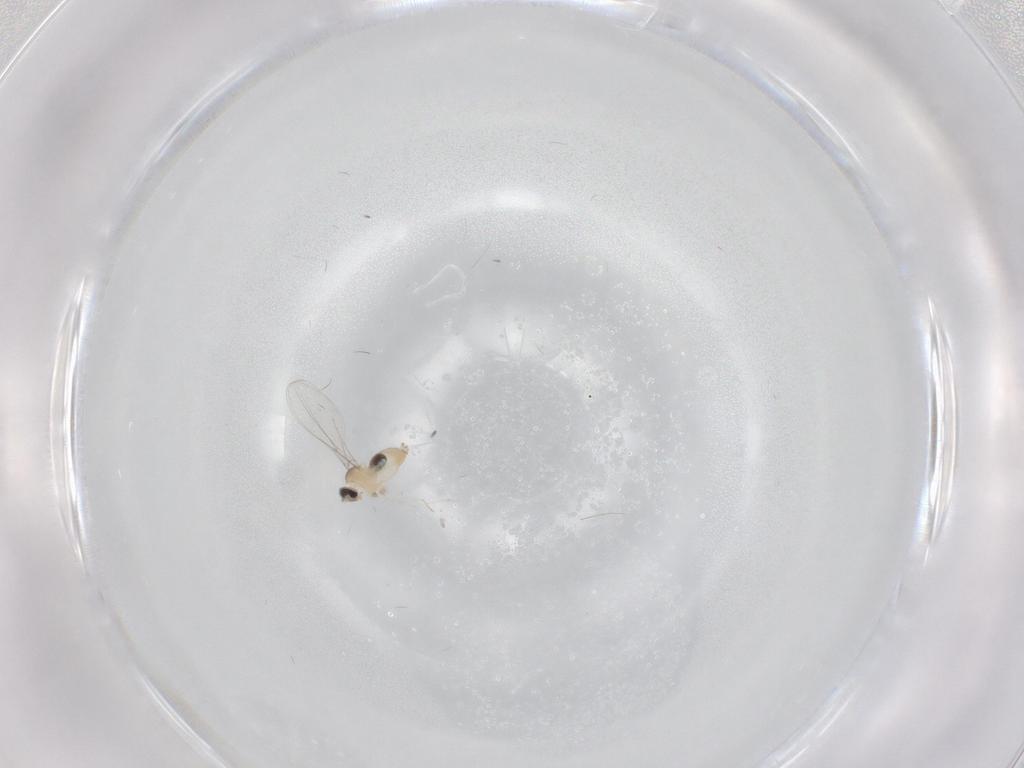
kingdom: Animalia
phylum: Arthropoda
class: Insecta
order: Diptera
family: Cecidomyiidae
